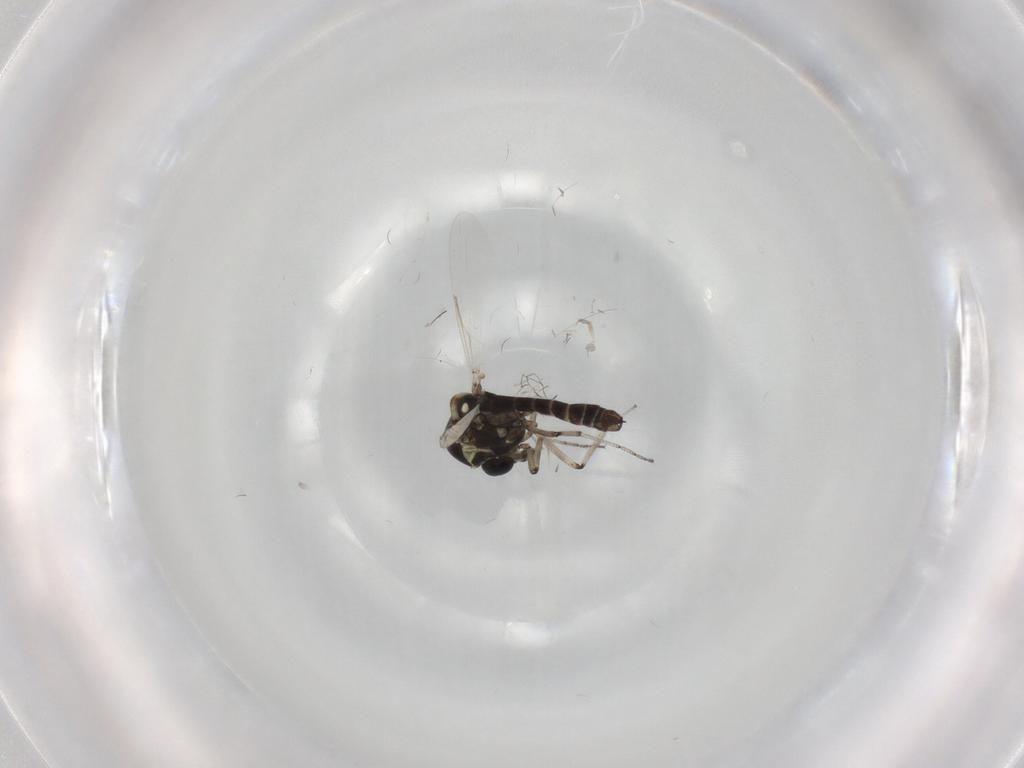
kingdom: Animalia
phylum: Arthropoda
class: Insecta
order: Diptera
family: Ceratopogonidae
